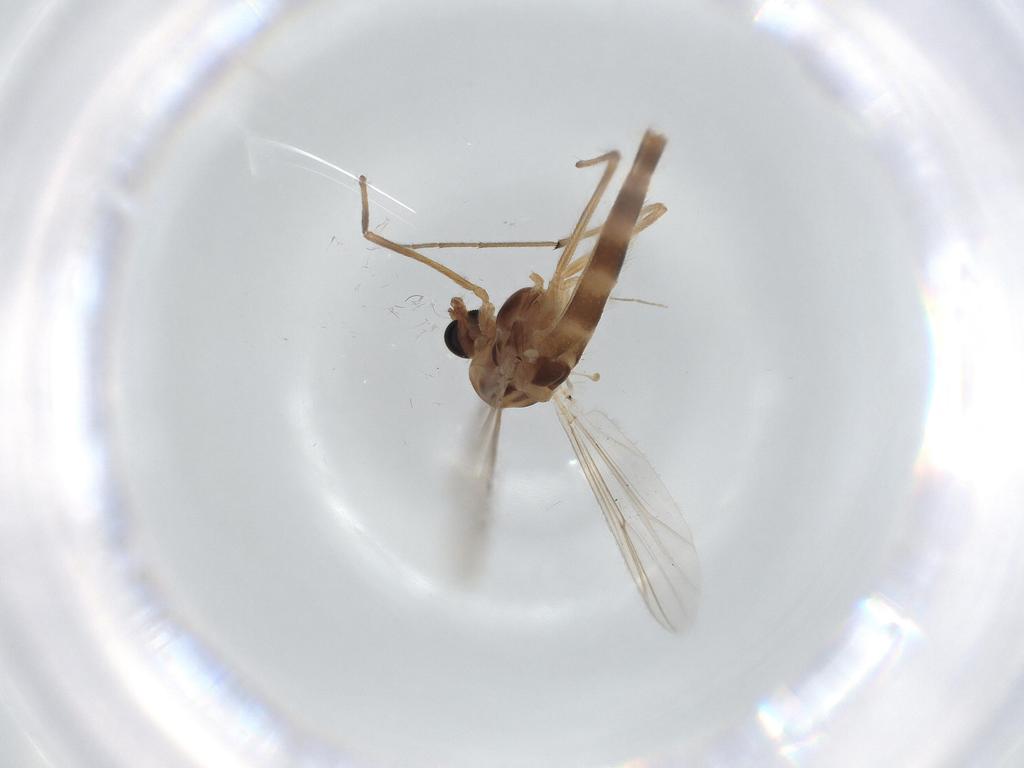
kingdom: Animalia
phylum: Arthropoda
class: Insecta
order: Diptera
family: Chironomidae
